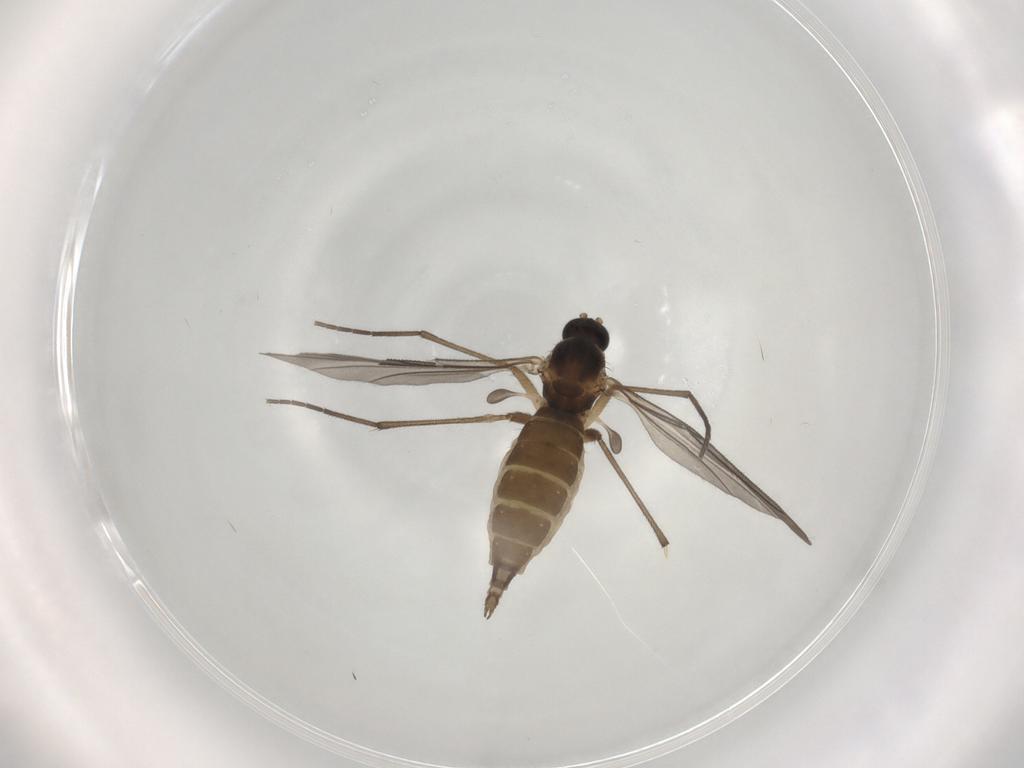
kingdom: Animalia
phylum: Arthropoda
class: Insecta
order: Diptera
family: Sciaridae
